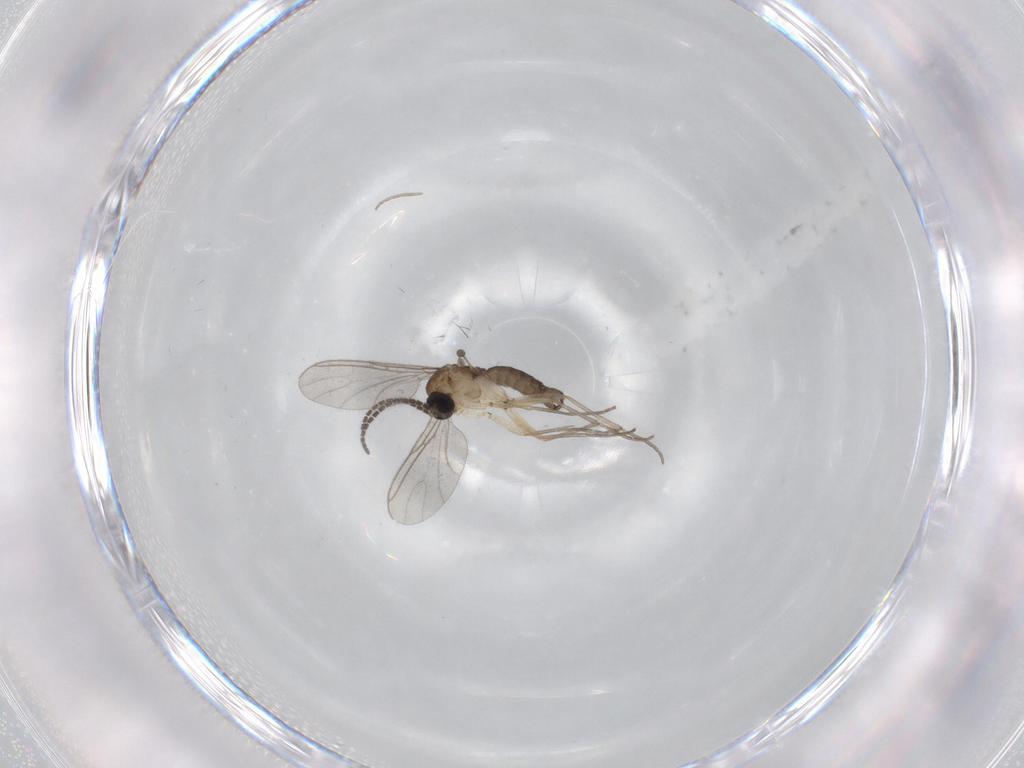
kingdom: Animalia
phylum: Arthropoda
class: Insecta
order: Diptera
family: Sciaridae
